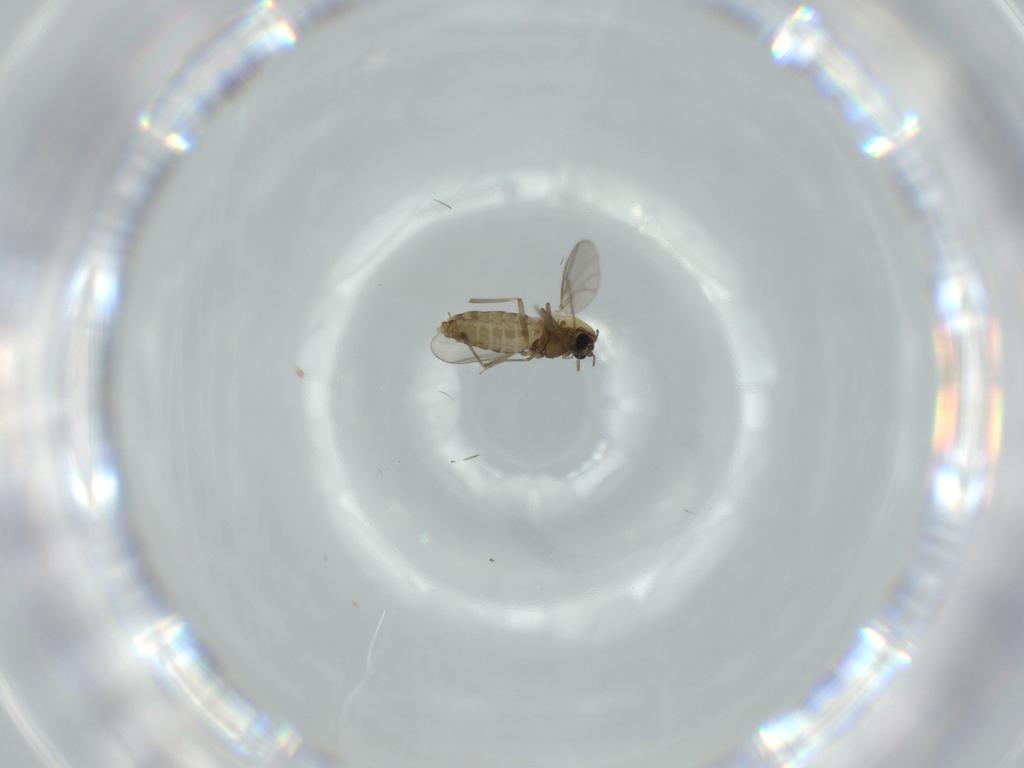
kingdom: Animalia
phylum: Arthropoda
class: Insecta
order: Diptera
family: Chironomidae
